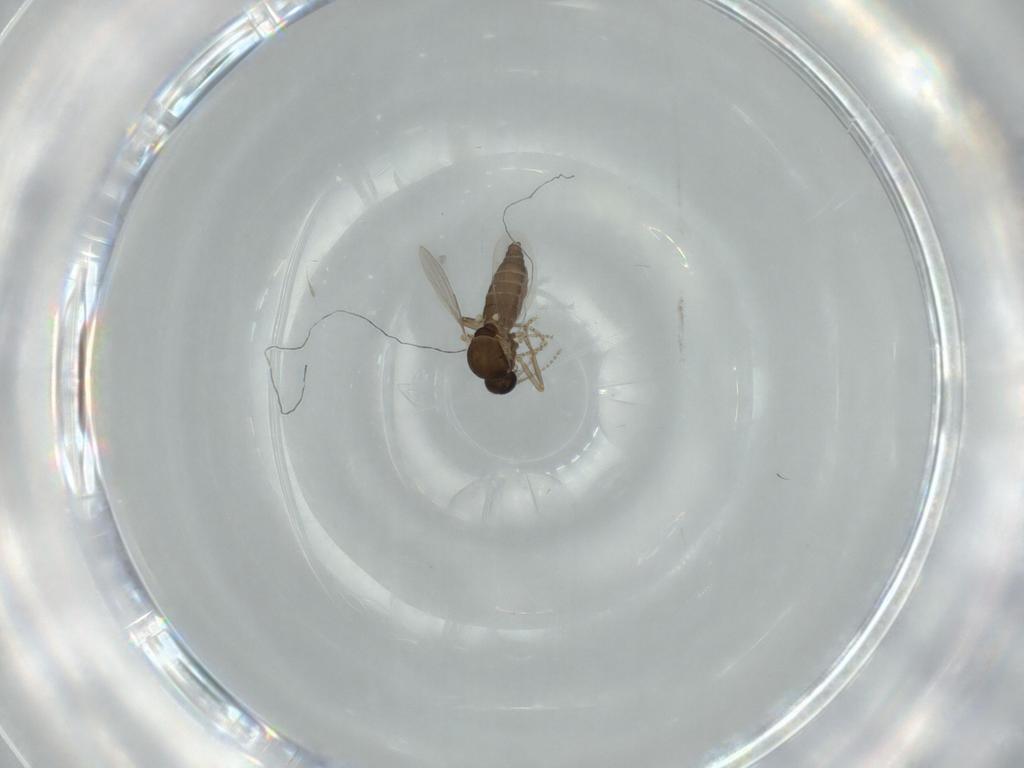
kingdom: Animalia
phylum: Arthropoda
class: Insecta
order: Diptera
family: Ceratopogonidae
